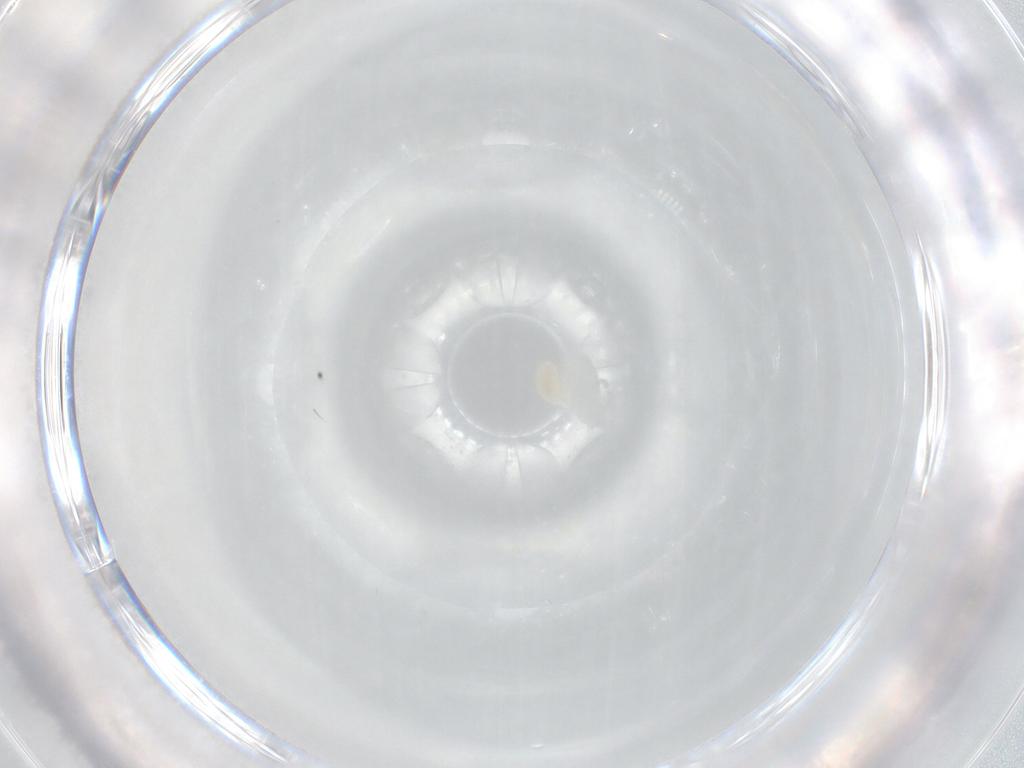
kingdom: Animalia
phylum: Arthropoda
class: Arachnida
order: Trombidiformes
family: Eupodidae
